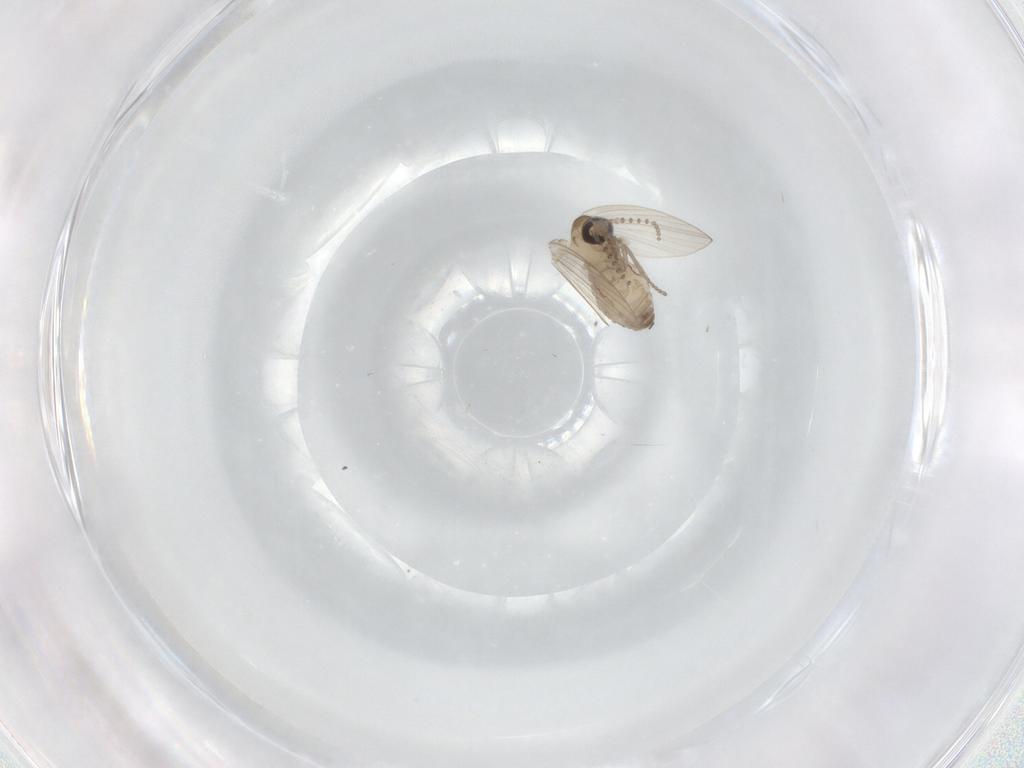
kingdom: Animalia
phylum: Arthropoda
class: Insecta
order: Diptera
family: Psychodidae
